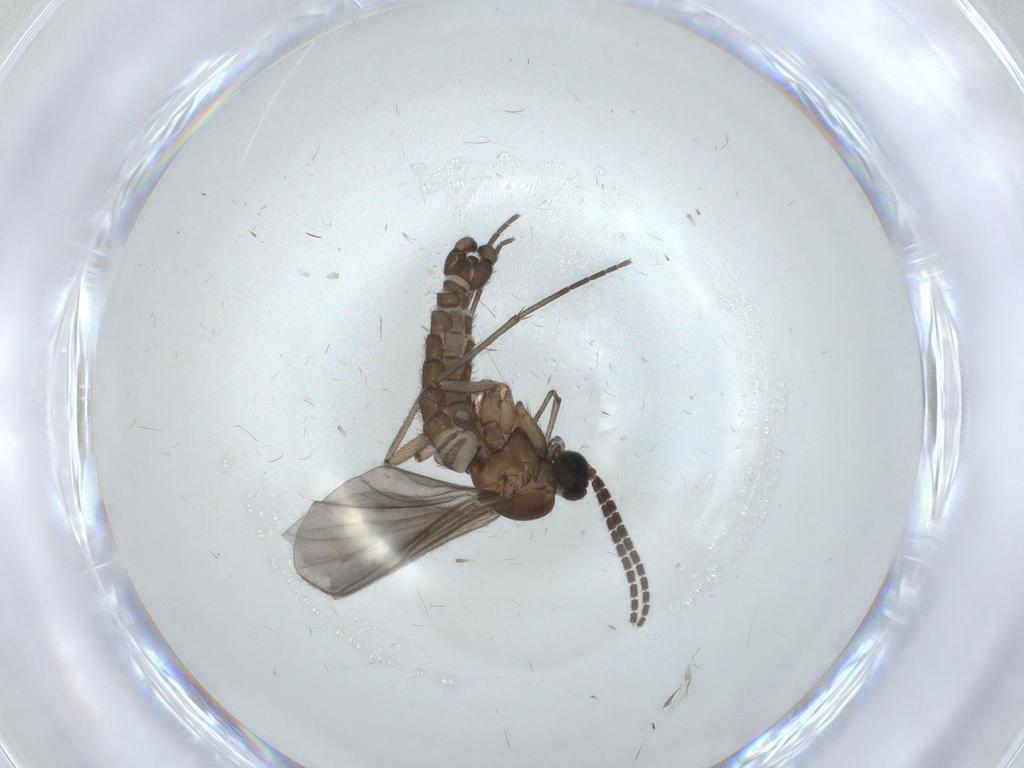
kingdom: Animalia
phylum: Arthropoda
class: Insecta
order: Diptera
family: Sciaridae
